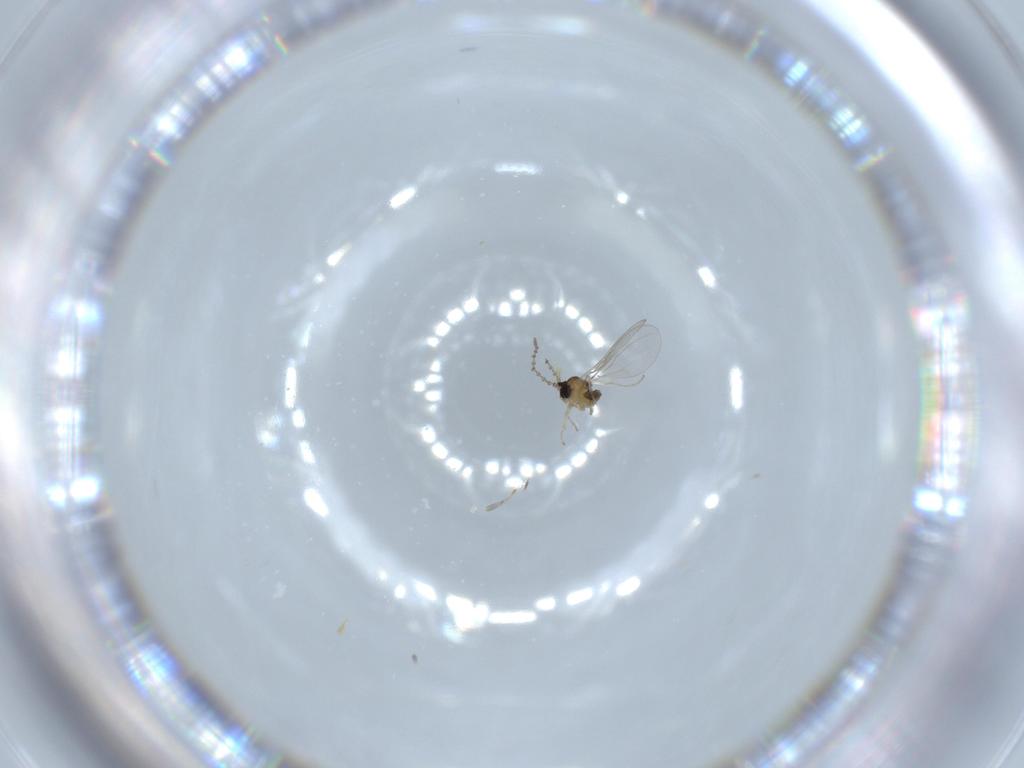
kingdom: Animalia
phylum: Arthropoda
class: Insecta
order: Diptera
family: Cecidomyiidae
